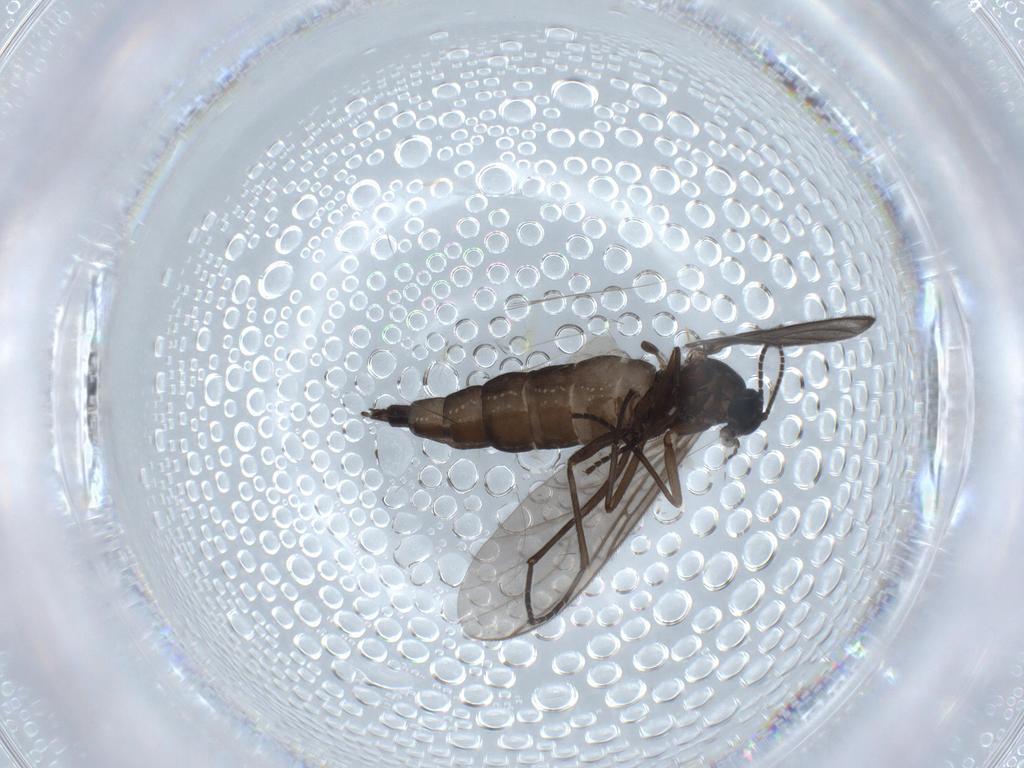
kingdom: Animalia
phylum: Arthropoda
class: Insecta
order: Diptera
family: Sciaridae
